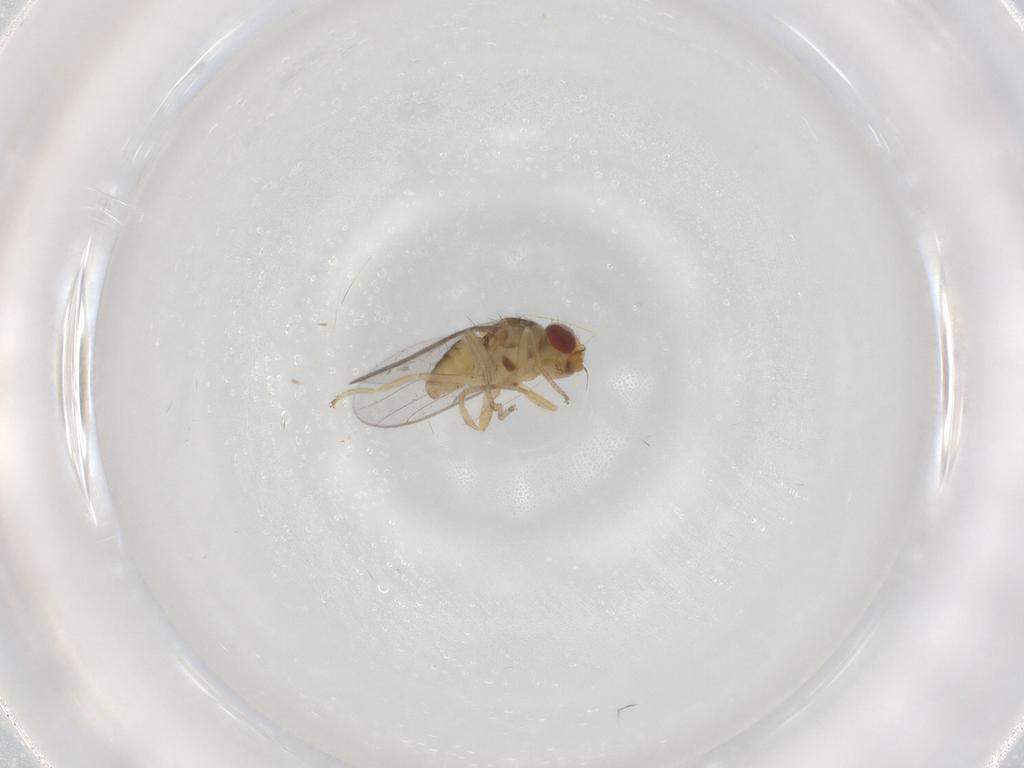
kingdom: Animalia
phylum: Arthropoda
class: Insecta
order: Diptera
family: Chloropidae
